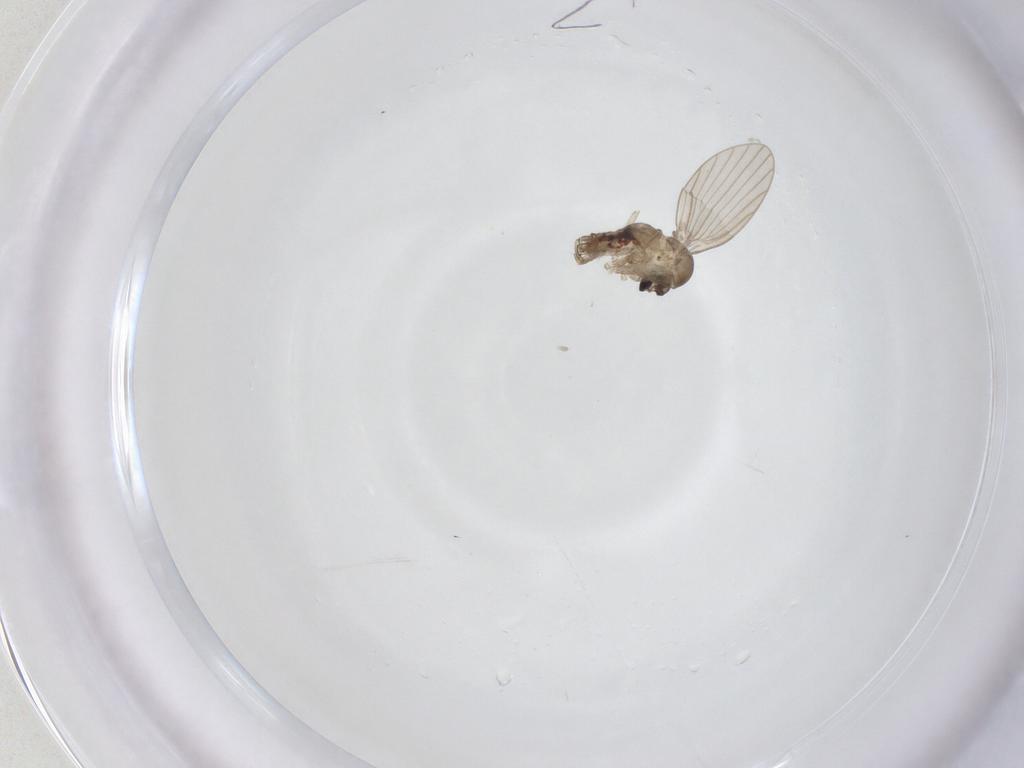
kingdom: Animalia
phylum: Arthropoda
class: Insecta
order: Diptera
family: Psychodidae
